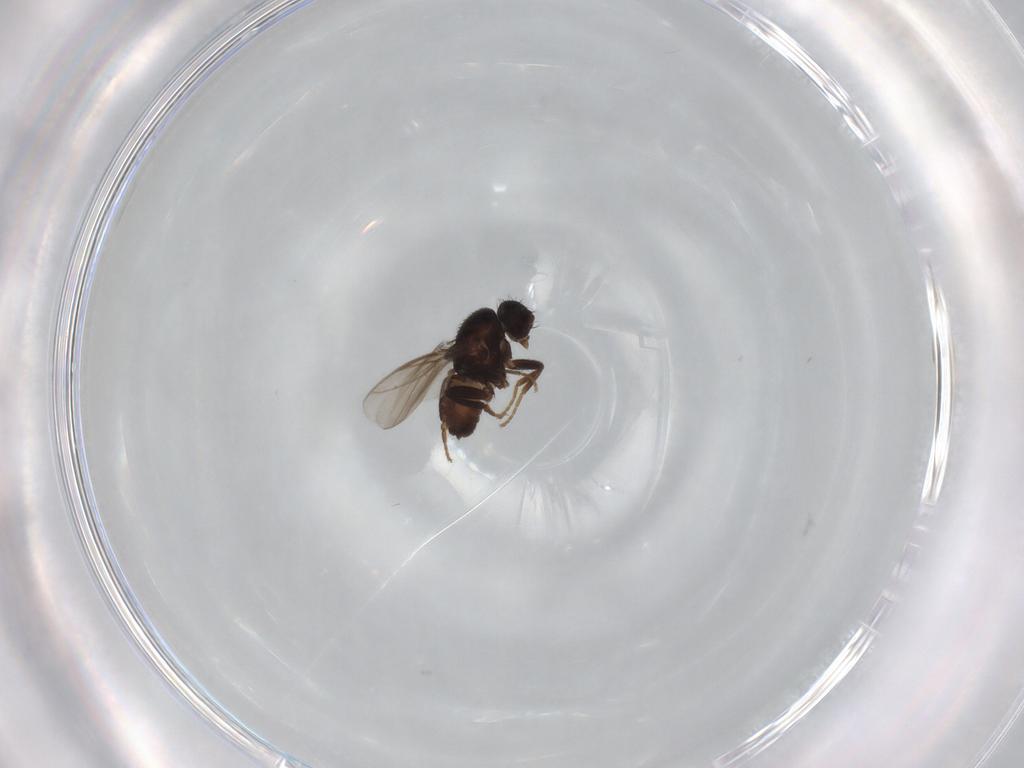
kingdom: Animalia
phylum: Arthropoda
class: Insecta
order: Diptera
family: Sphaeroceridae
